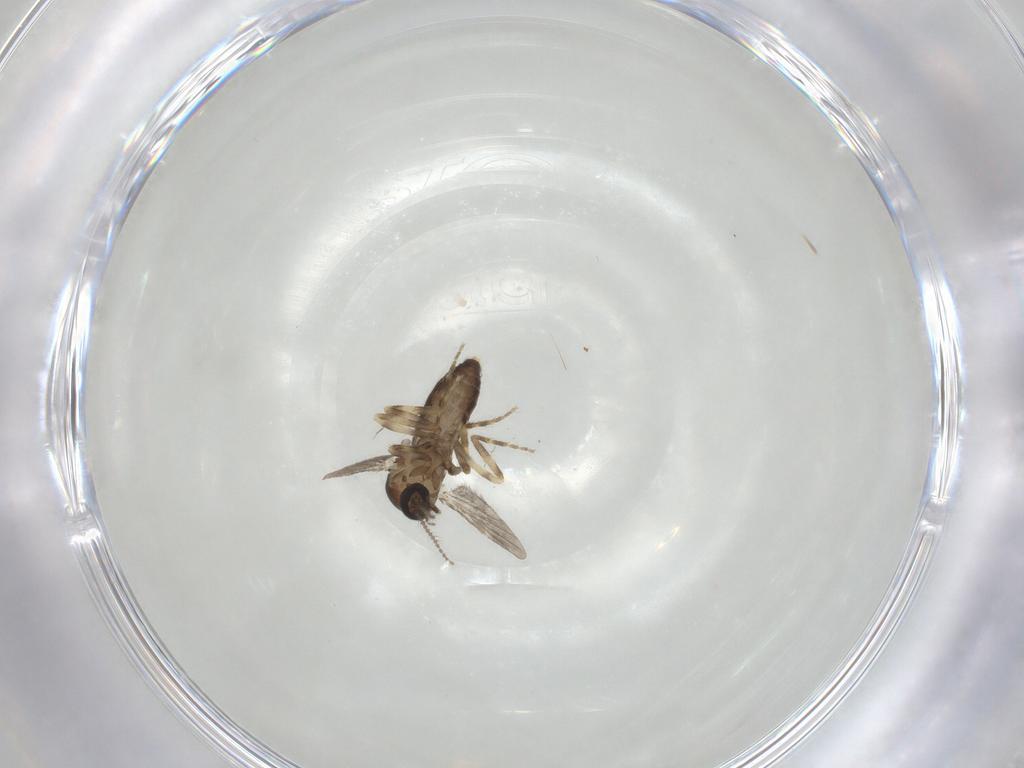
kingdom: Animalia
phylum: Arthropoda
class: Insecta
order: Diptera
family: Ceratopogonidae
